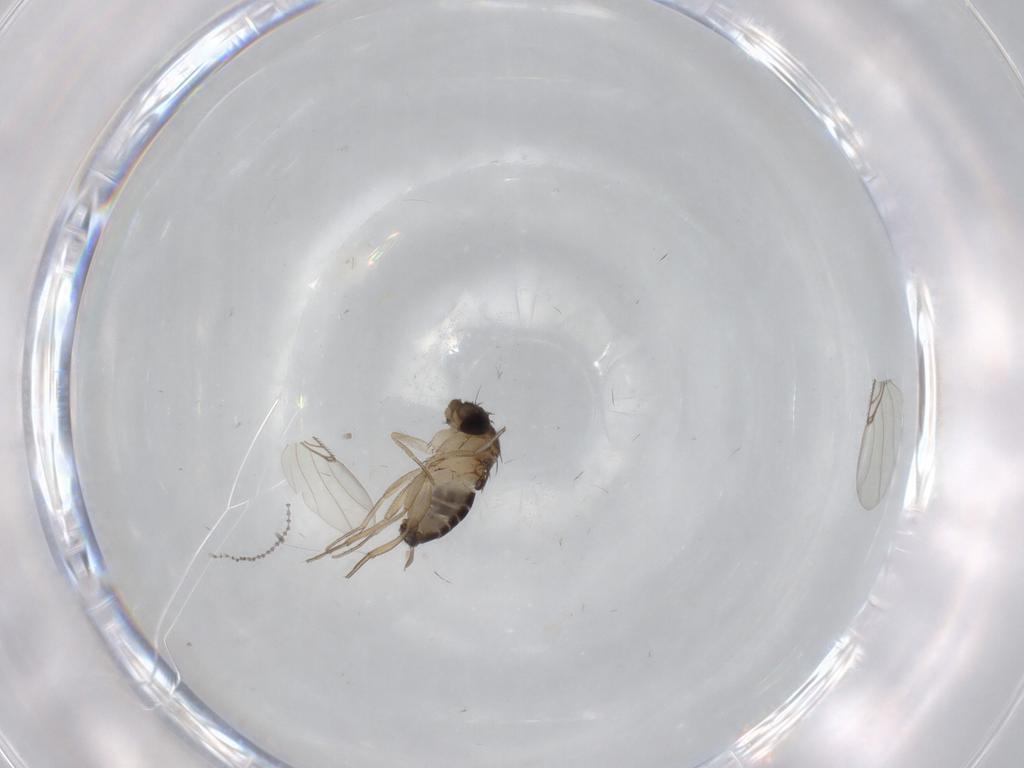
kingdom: Animalia
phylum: Arthropoda
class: Insecta
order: Diptera
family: Phoridae
